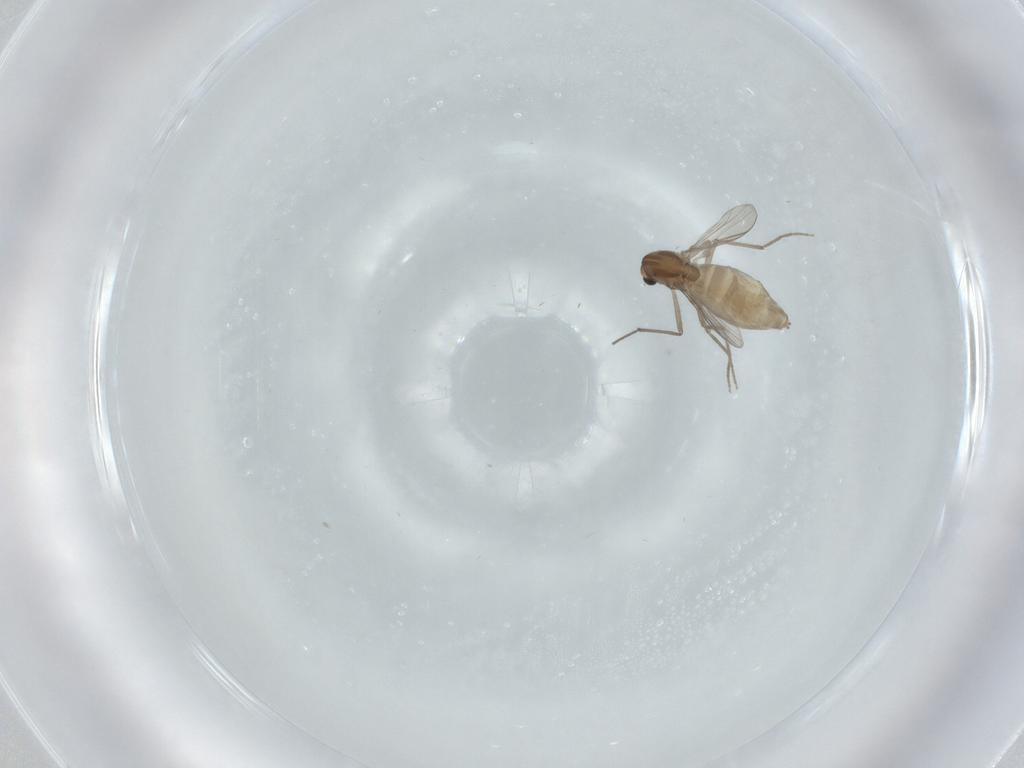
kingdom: Animalia
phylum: Arthropoda
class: Insecta
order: Diptera
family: Chironomidae
